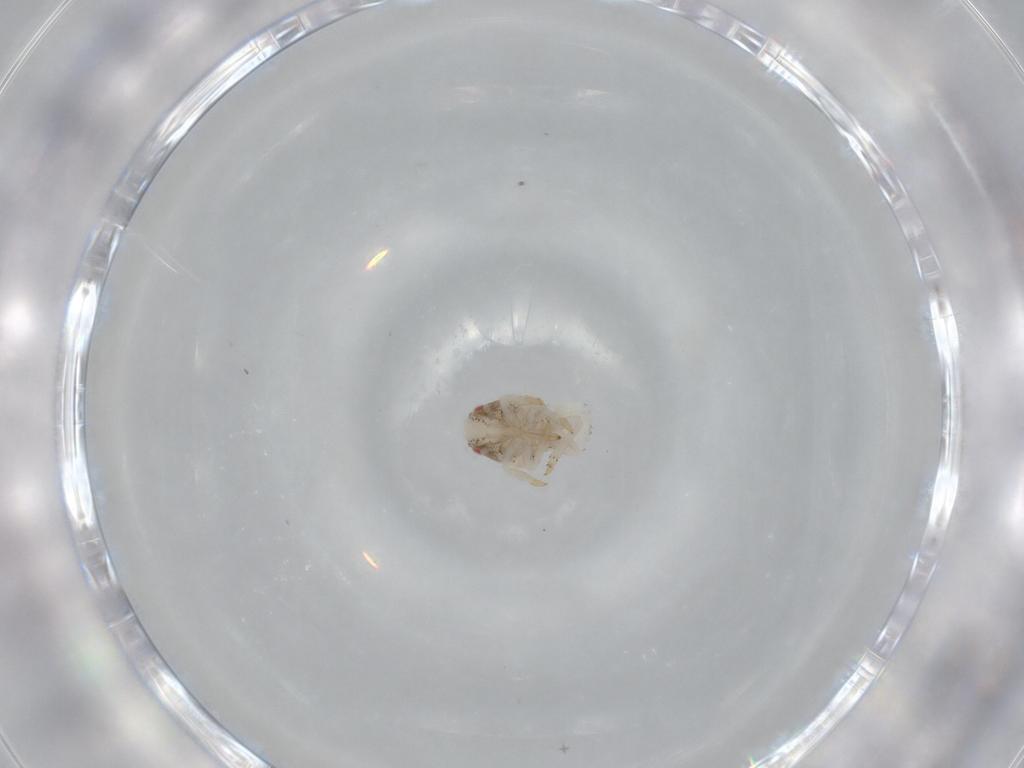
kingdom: Animalia
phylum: Arthropoda
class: Insecta
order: Hemiptera
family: Acanaloniidae
